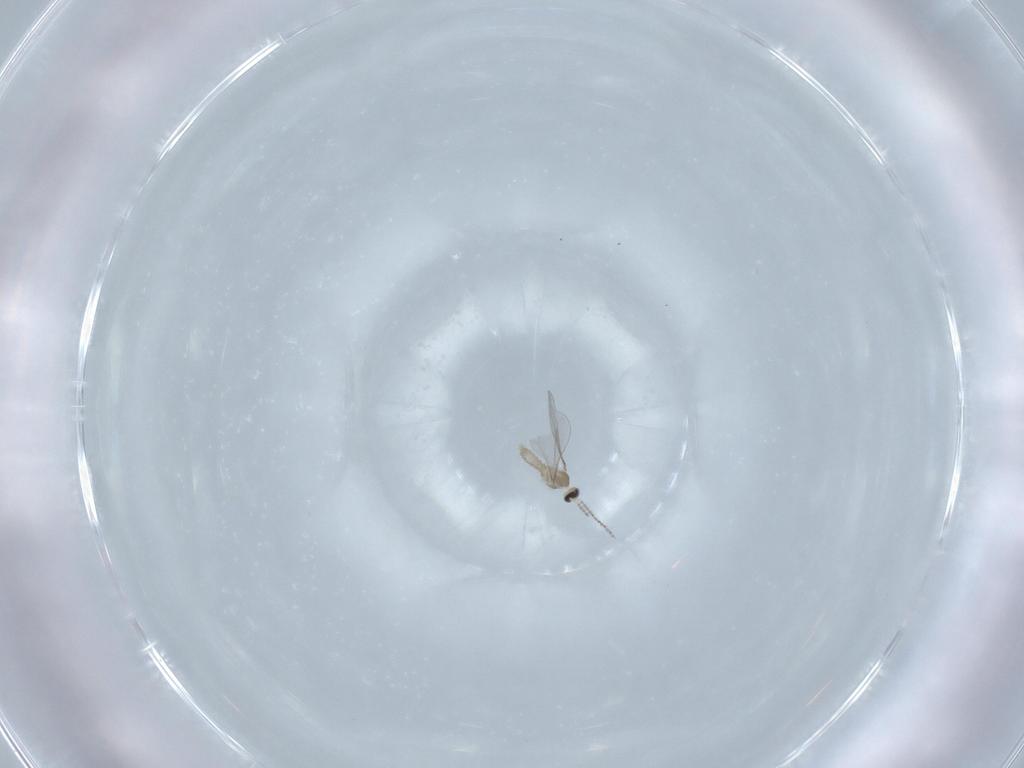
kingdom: Animalia
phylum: Arthropoda
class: Insecta
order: Diptera
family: Cecidomyiidae
